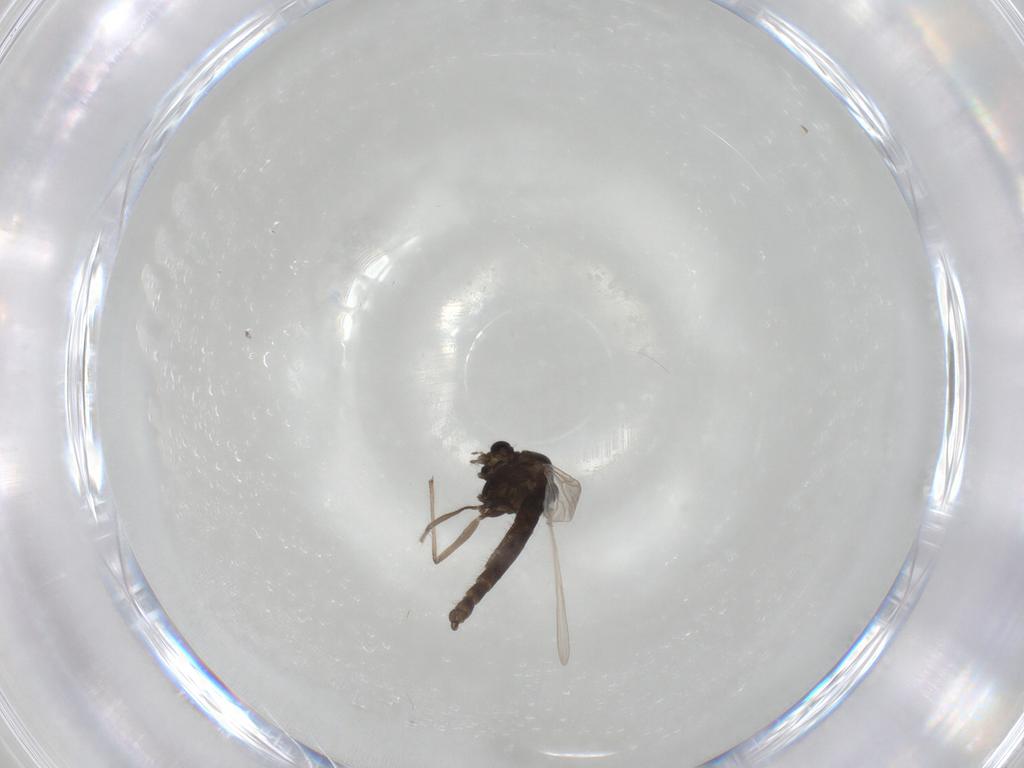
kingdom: Animalia
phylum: Arthropoda
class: Insecta
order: Diptera
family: Chironomidae
